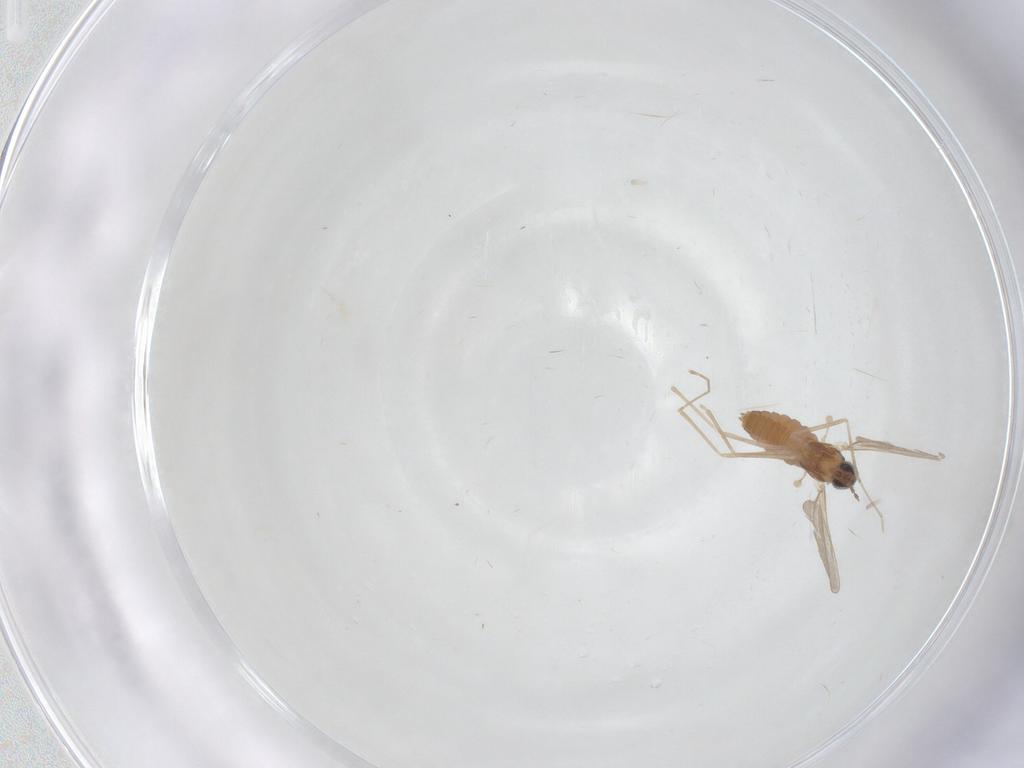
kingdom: Animalia
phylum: Arthropoda
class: Insecta
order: Diptera
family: Cecidomyiidae
